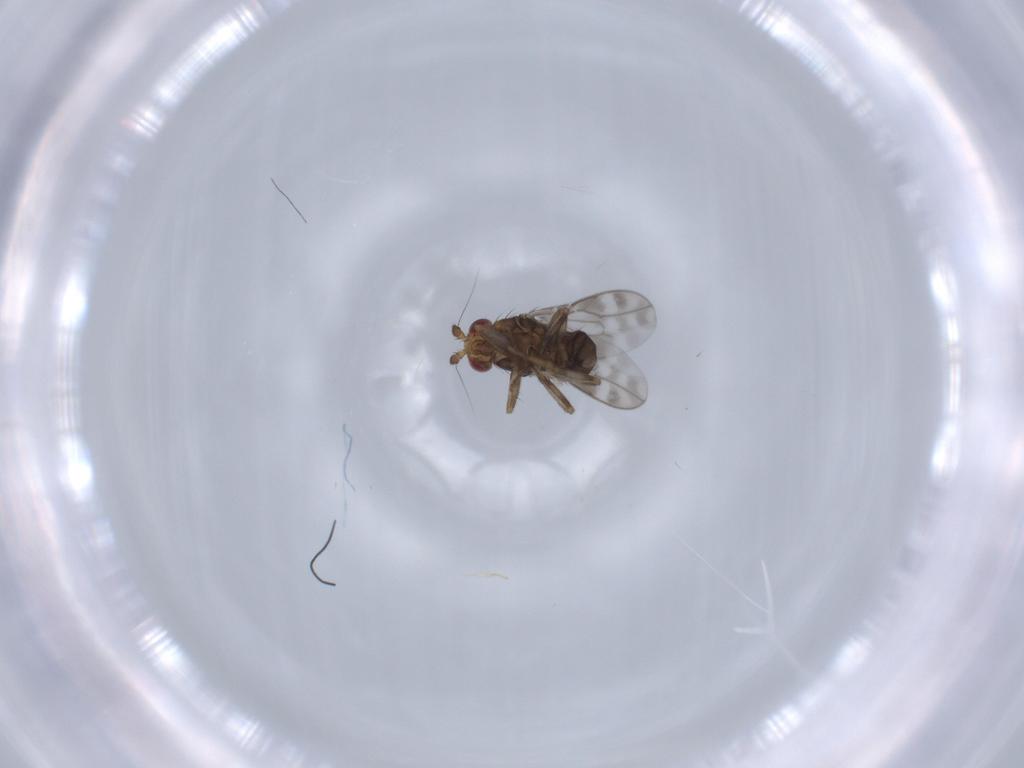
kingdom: Animalia
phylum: Arthropoda
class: Insecta
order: Diptera
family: Sphaeroceridae
